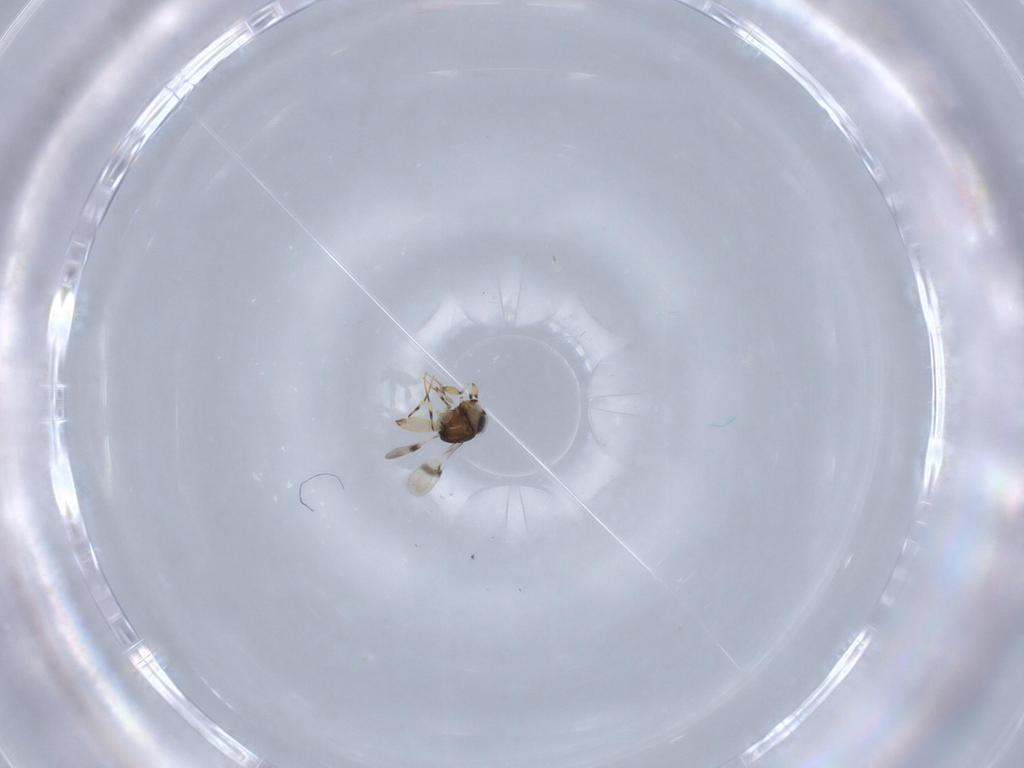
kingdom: Animalia
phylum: Arthropoda
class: Insecta
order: Hymenoptera
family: Scelionidae
